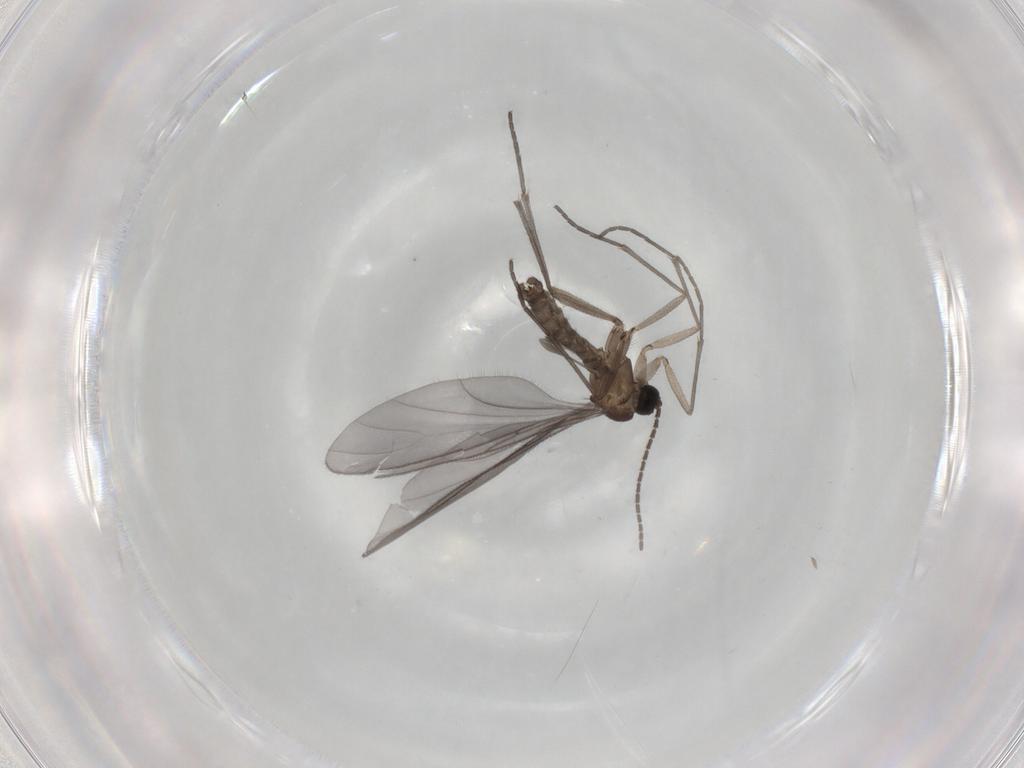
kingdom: Animalia
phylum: Arthropoda
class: Insecta
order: Diptera
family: Sciaridae
